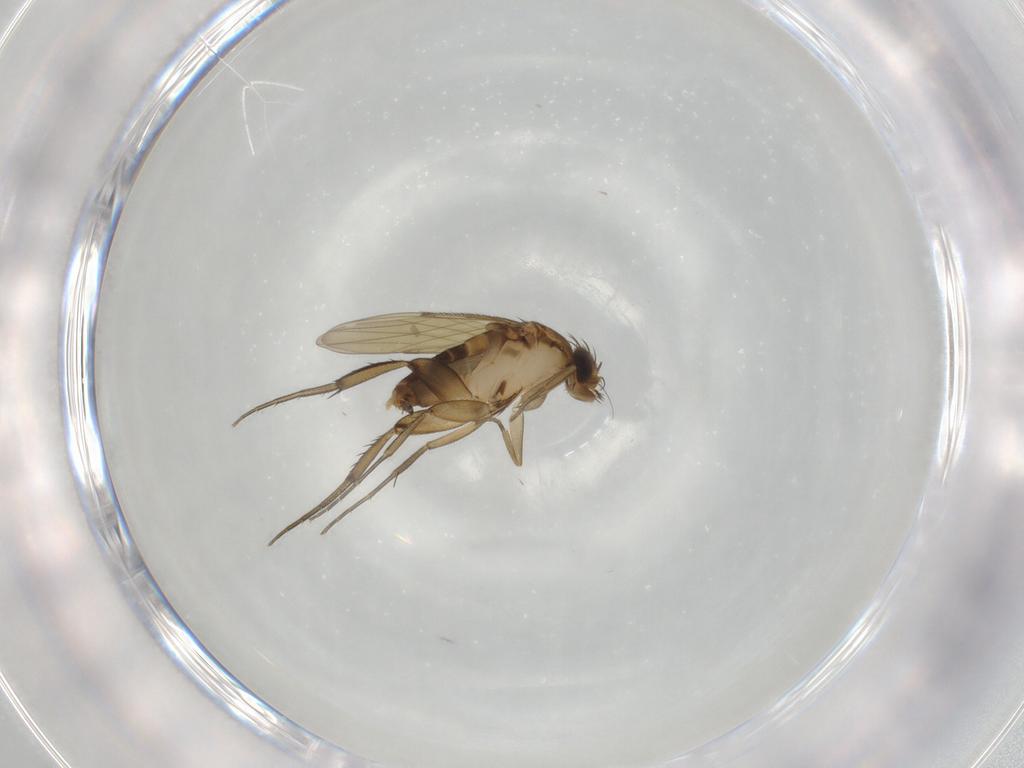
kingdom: Animalia
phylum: Arthropoda
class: Insecta
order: Diptera
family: Phoridae
